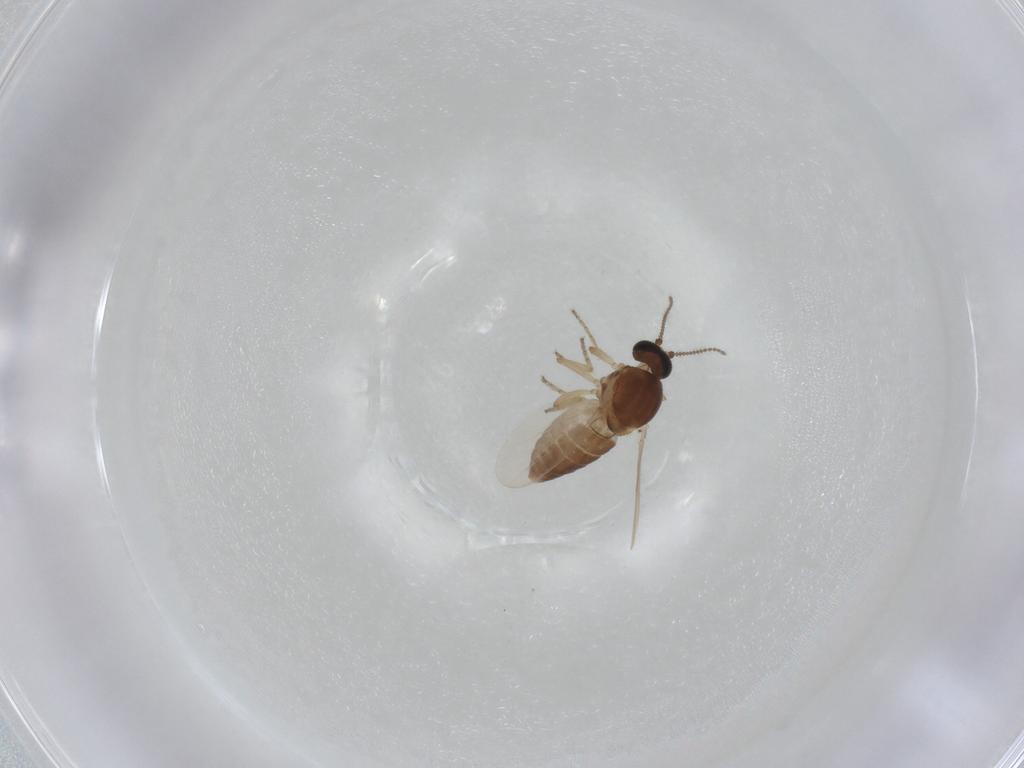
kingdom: Animalia
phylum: Arthropoda
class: Insecta
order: Diptera
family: Ceratopogonidae
